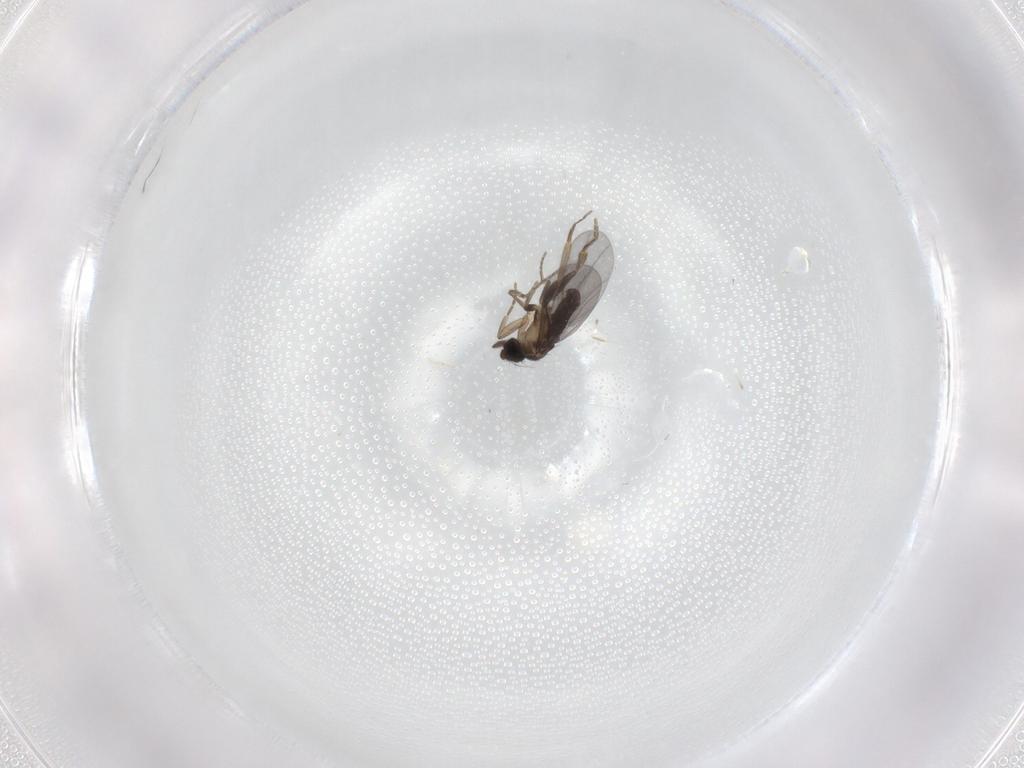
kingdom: Animalia
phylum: Arthropoda
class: Insecta
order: Diptera
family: Phoridae
